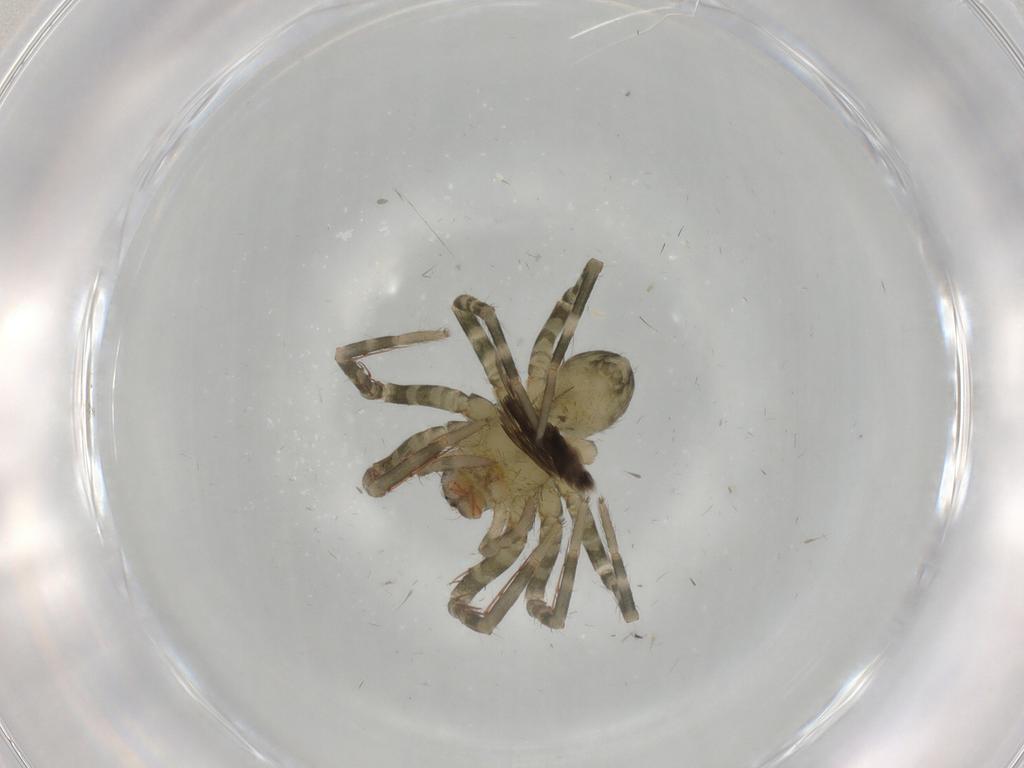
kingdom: Animalia
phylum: Arthropoda
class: Arachnida
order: Araneae
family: Ctenidae
